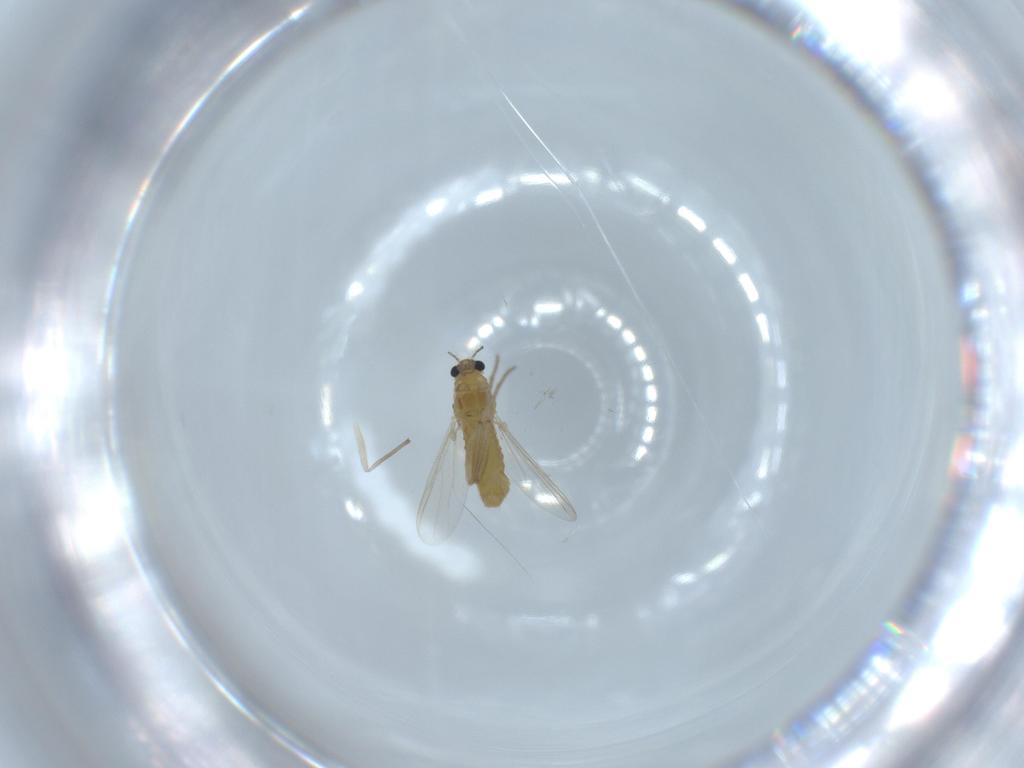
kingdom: Animalia
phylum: Arthropoda
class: Insecta
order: Diptera
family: Chironomidae
